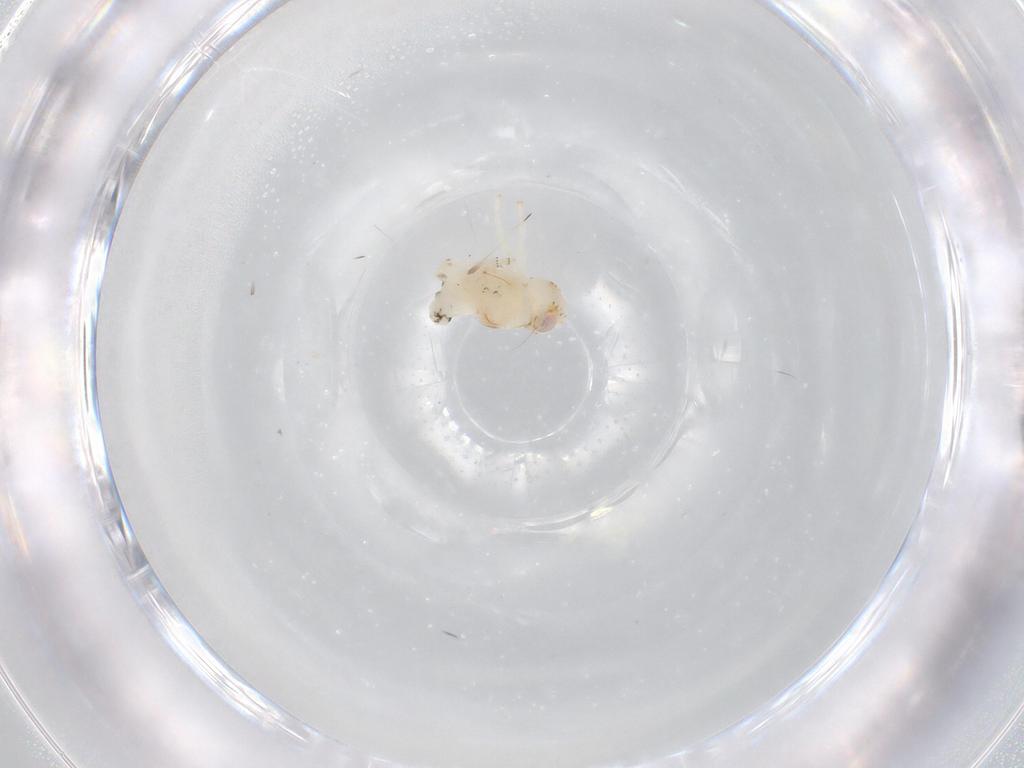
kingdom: Animalia
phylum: Arthropoda
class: Insecta
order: Hemiptera
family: Nogodinidae
